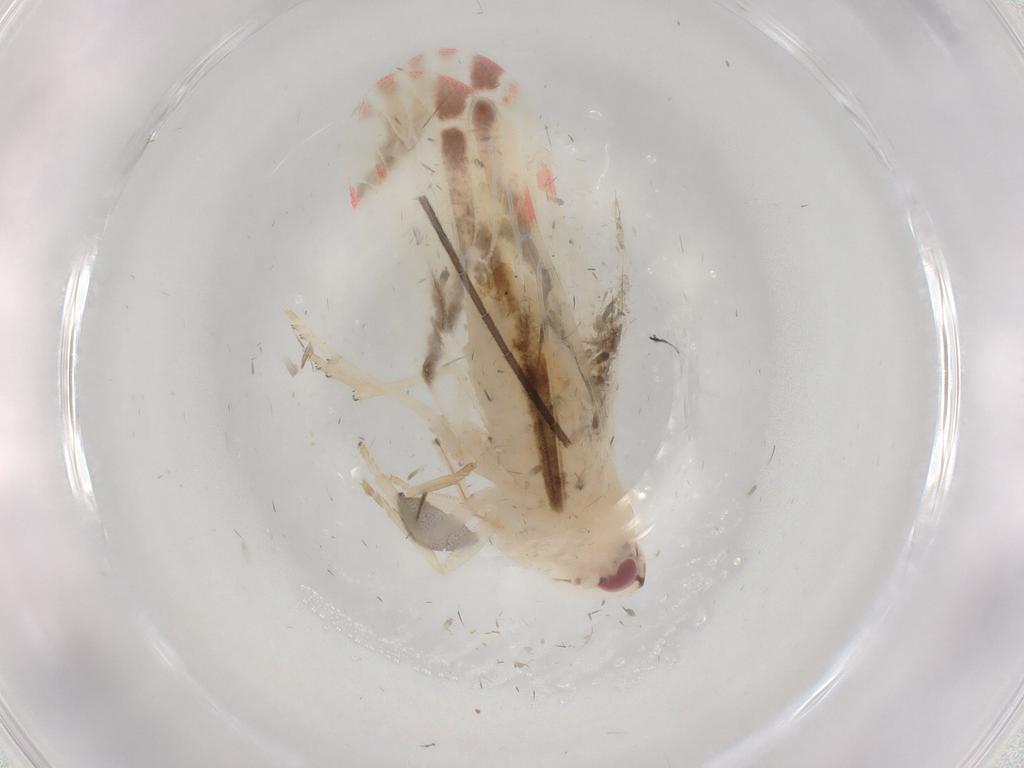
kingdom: Animalia
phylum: Arthropoda
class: Insecta
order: Hemiptera
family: Derbidae
